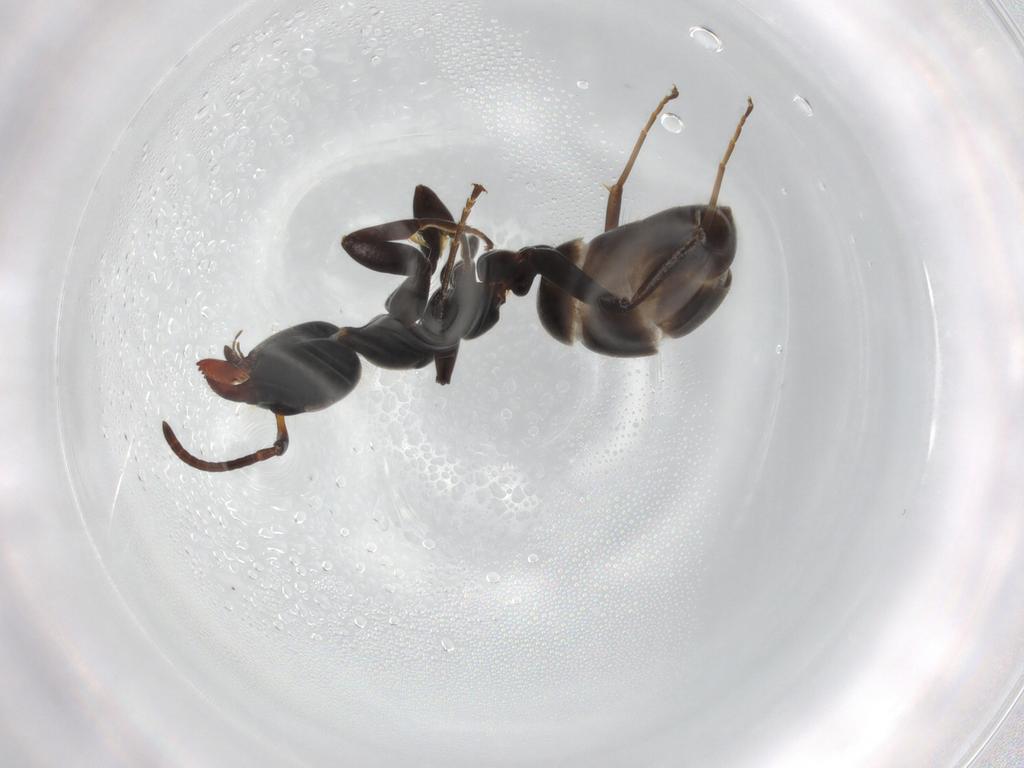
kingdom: Animalia
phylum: Arthropoda
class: Insecta
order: Hymenoptera
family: Formicidae
